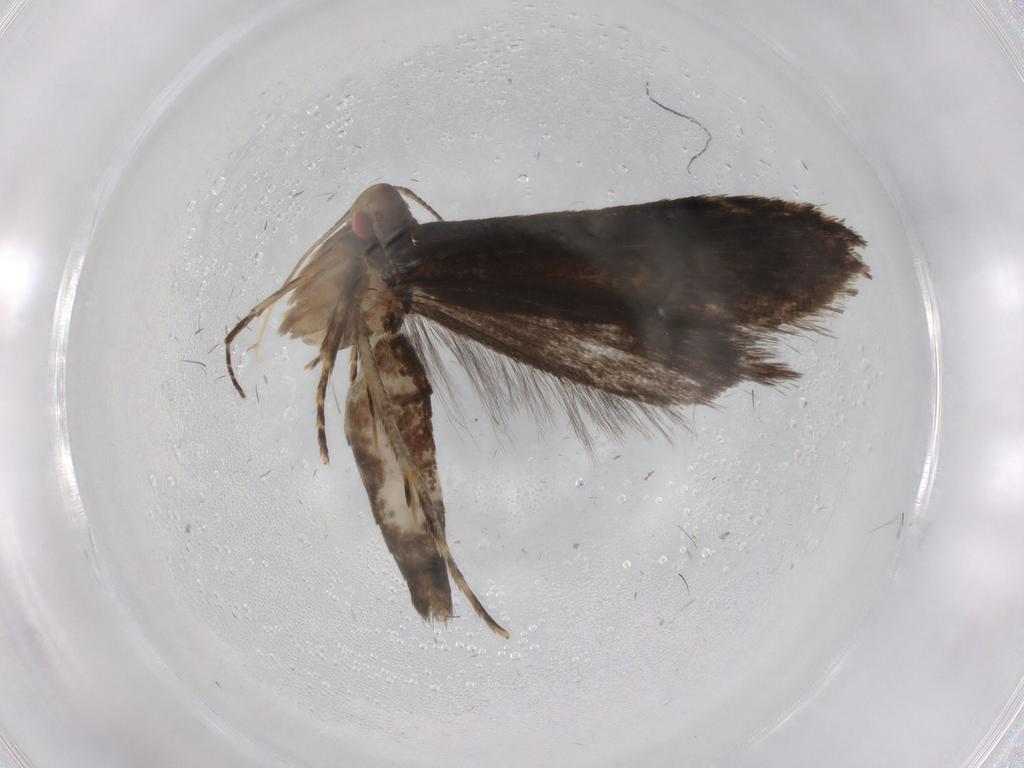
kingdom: Animalia
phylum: Arthropoda
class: Insecta
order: Lepidoptera
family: Gelechiidae
